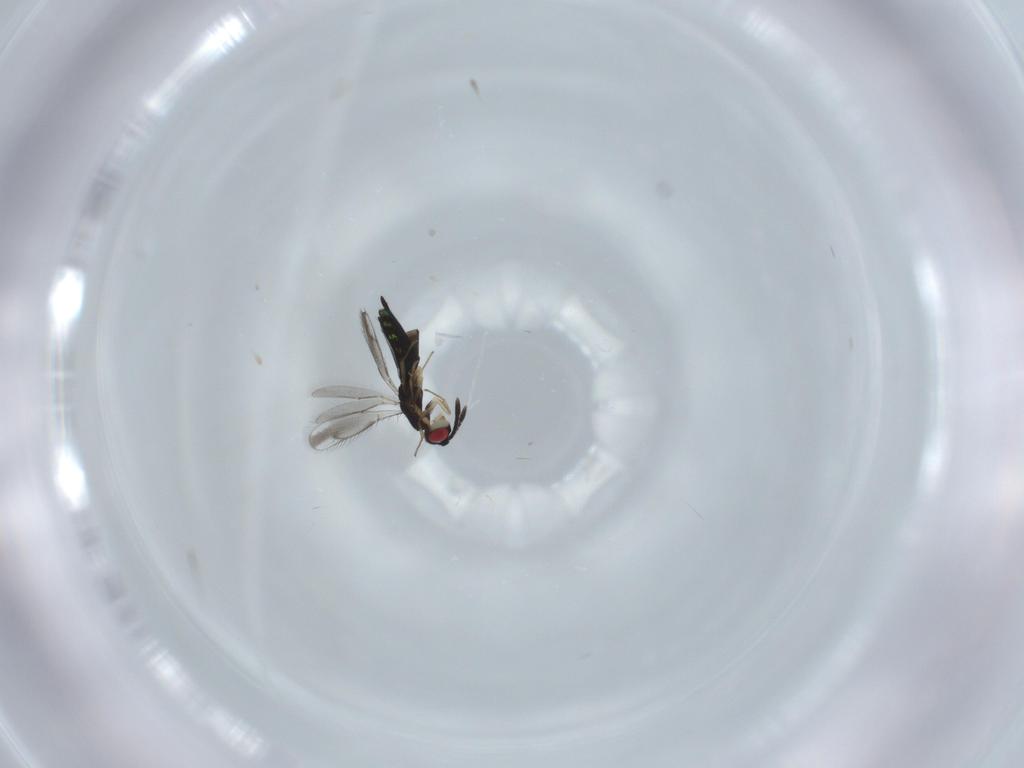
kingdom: Animalia
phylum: Arthropoda
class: Insecta
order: Hymenoptera
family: Pteromalidae
